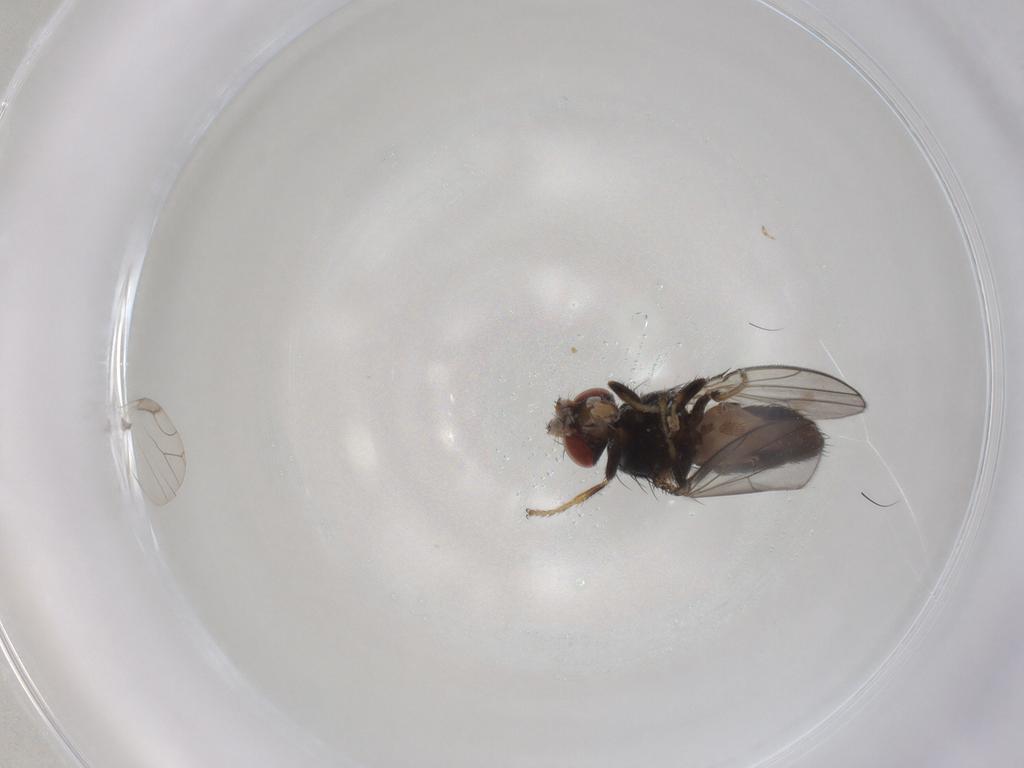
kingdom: Animalia
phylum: Arthropoda
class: Insecta
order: Diptera
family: Drosophilidae
